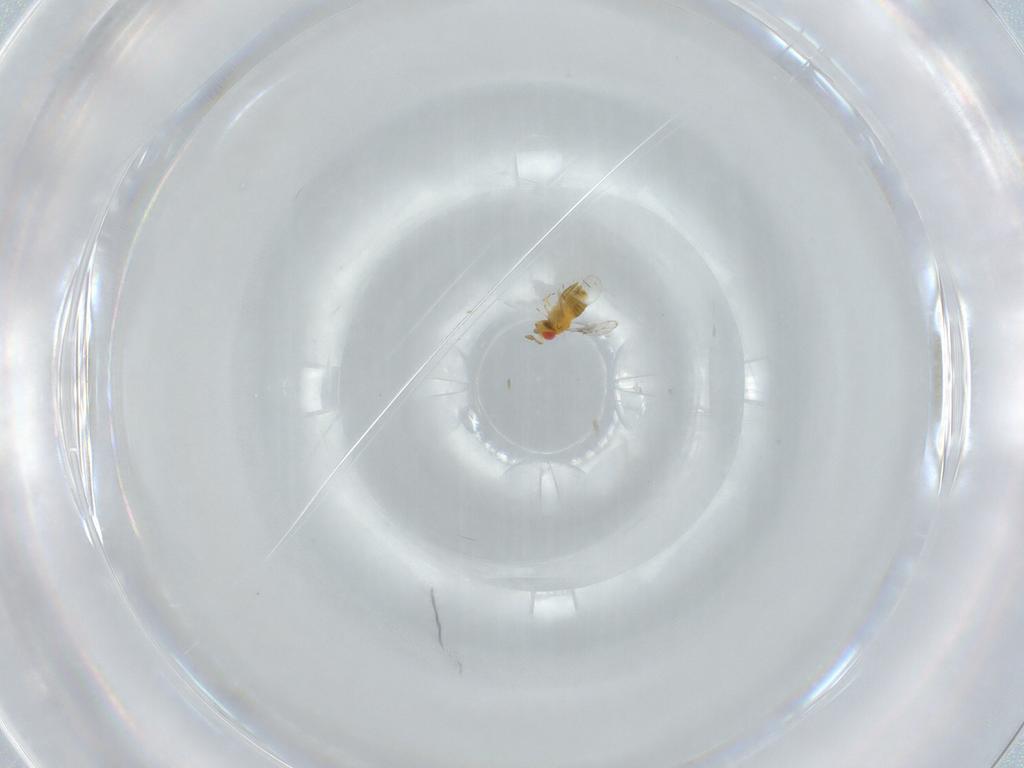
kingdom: Animalia
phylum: Arthropoda
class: Insecta
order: Hymenoptera
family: Trichogrammatidae
